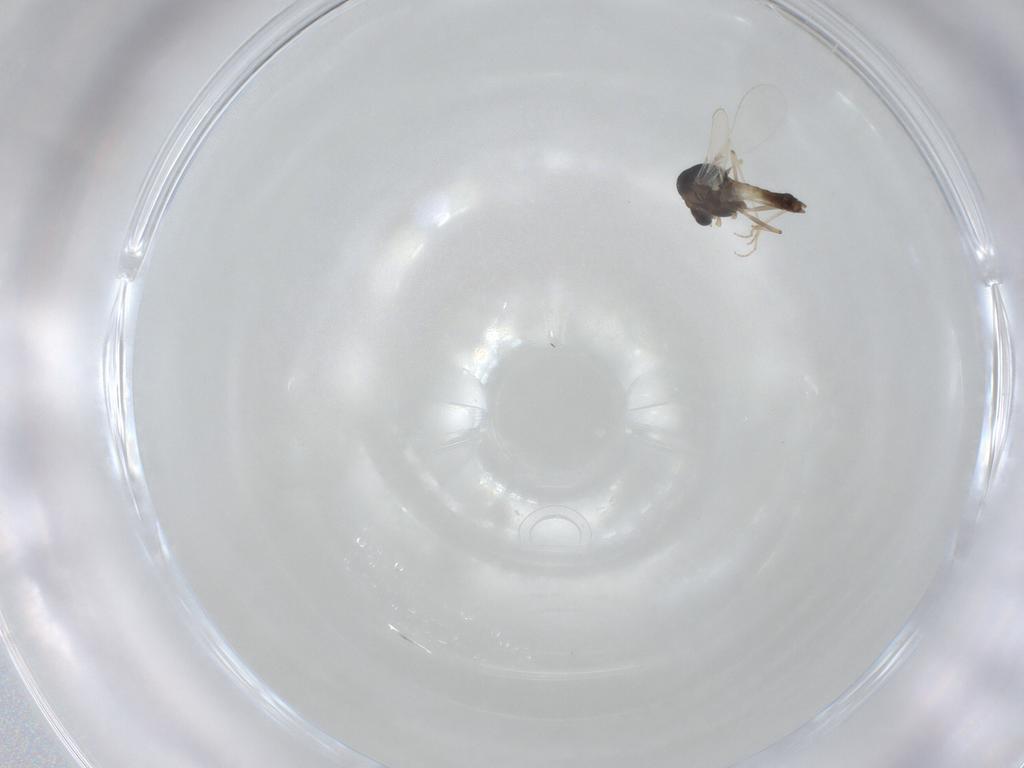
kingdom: Animalia
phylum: Arthropoda
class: Insecta
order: Diptera
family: Chironomidae
